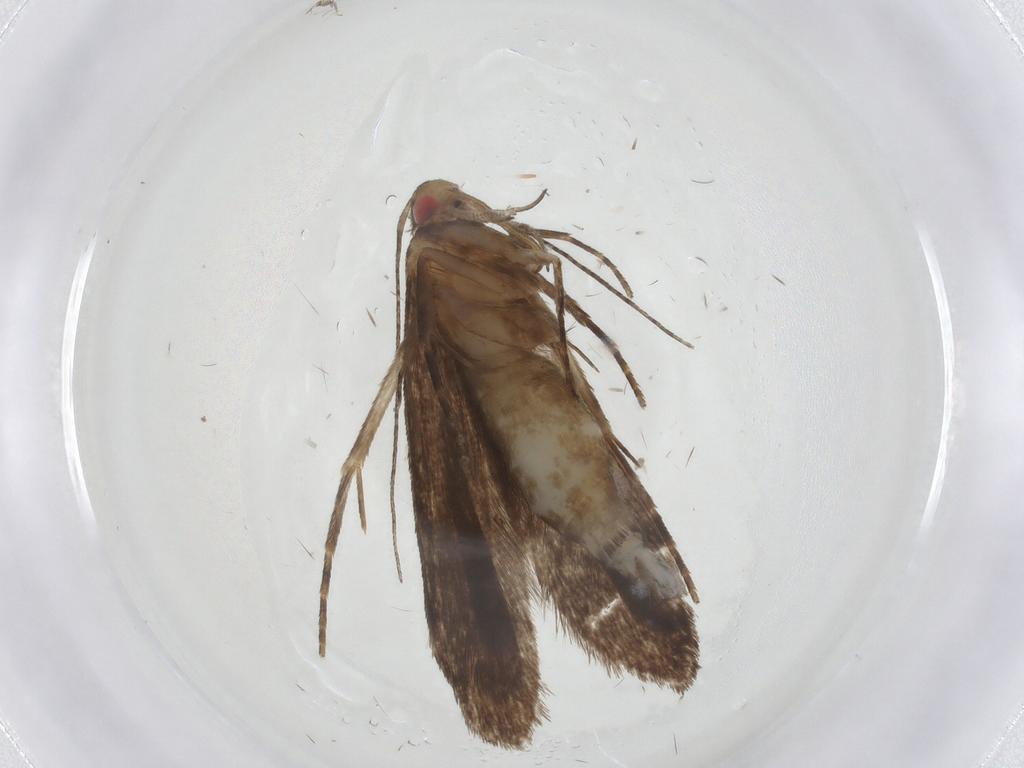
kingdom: Animalia
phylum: Arthropoda
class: Insecta
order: Lepidoptera
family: Gelechiidae
